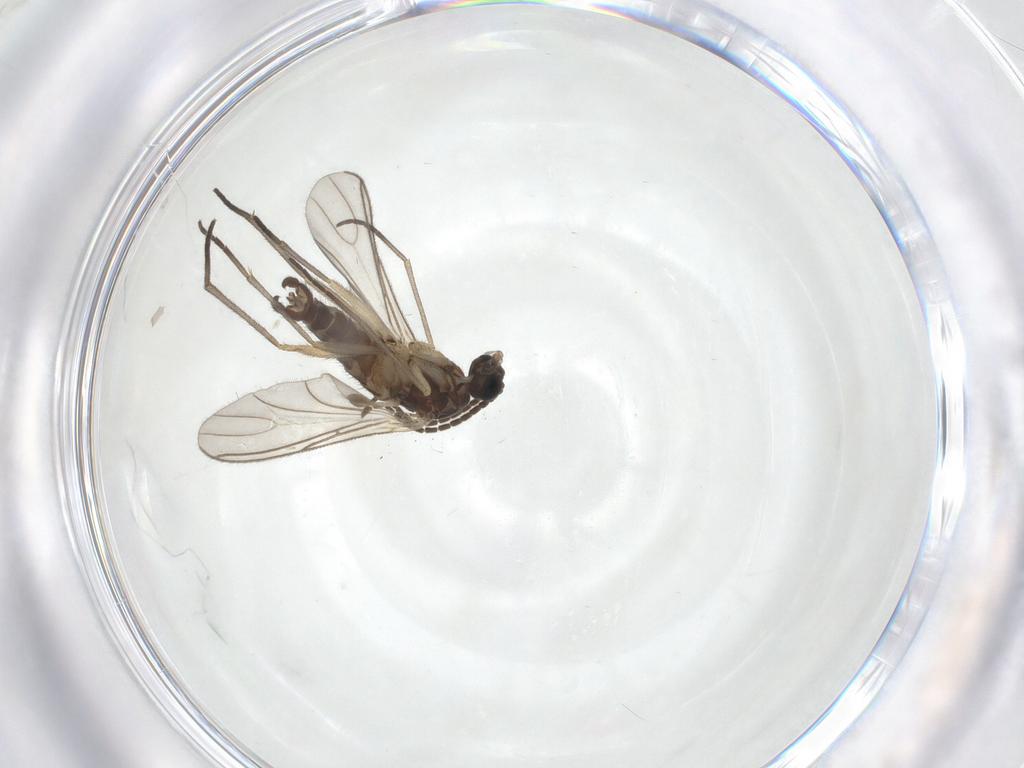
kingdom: Animalia
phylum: Arthropoda
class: Insecta
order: Diptera
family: Sciaridae
